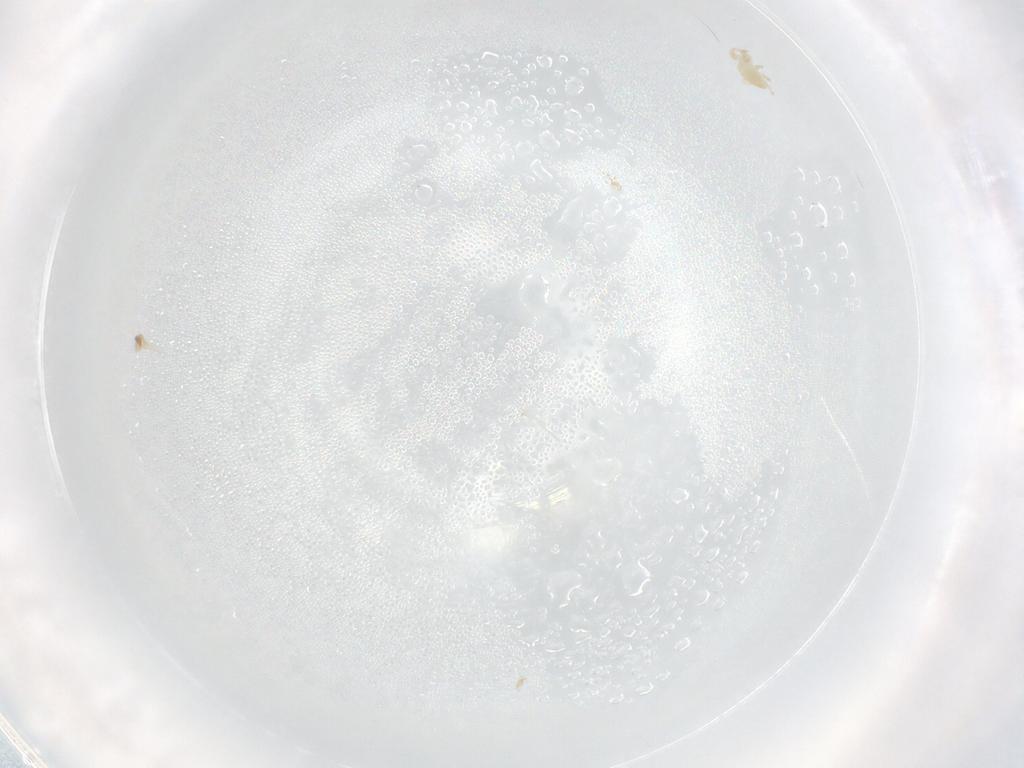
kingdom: Animalia
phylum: Arthropoda
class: Arachnida
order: Mesostigmata
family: Phytoseiidae
